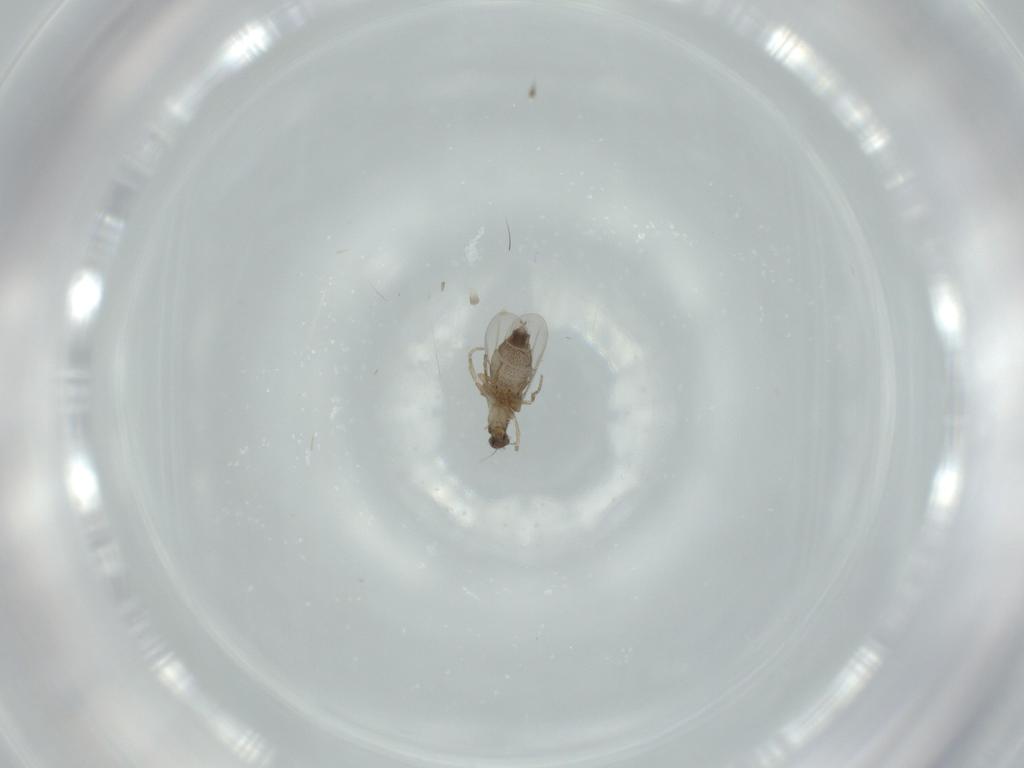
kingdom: Animalia
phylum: Arthropoda
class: Insecta
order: Diptera
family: Phoridae
